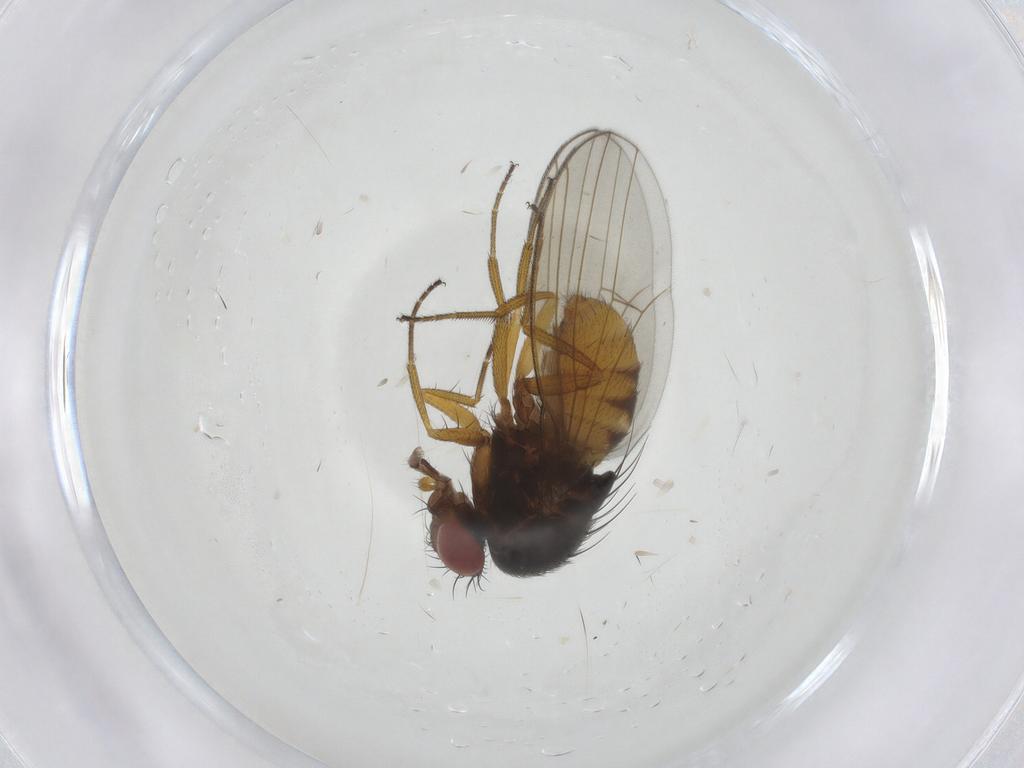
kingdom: Animalia
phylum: Arthropoda
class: Insecta
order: Diptera
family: Drosophilidae
